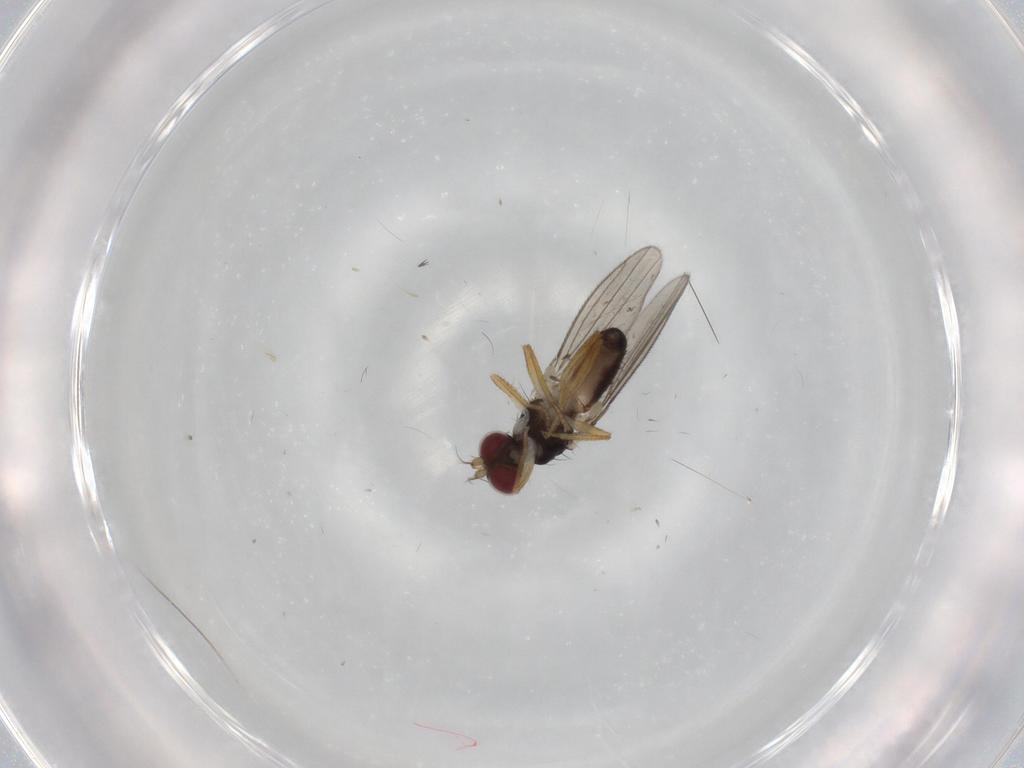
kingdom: Animalia
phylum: Arthropoda
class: Insecta
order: Diptera
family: Anthomyzidae
